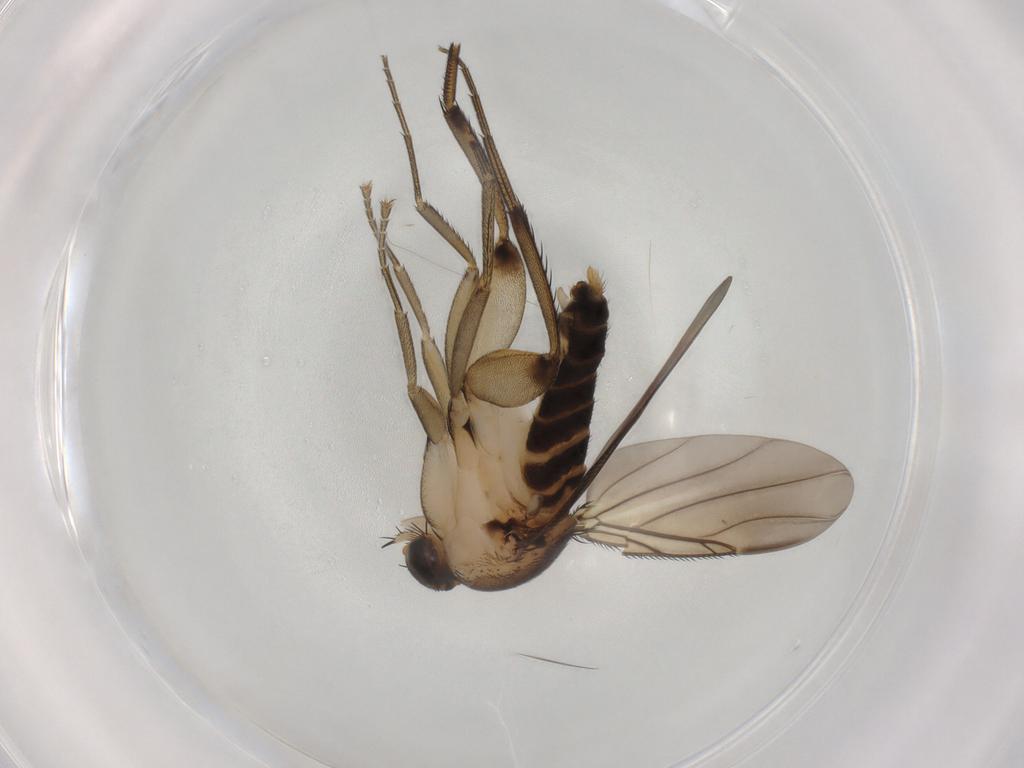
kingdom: Animalia
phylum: Arthropoda
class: Insecta
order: Diptera
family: Phoridae
